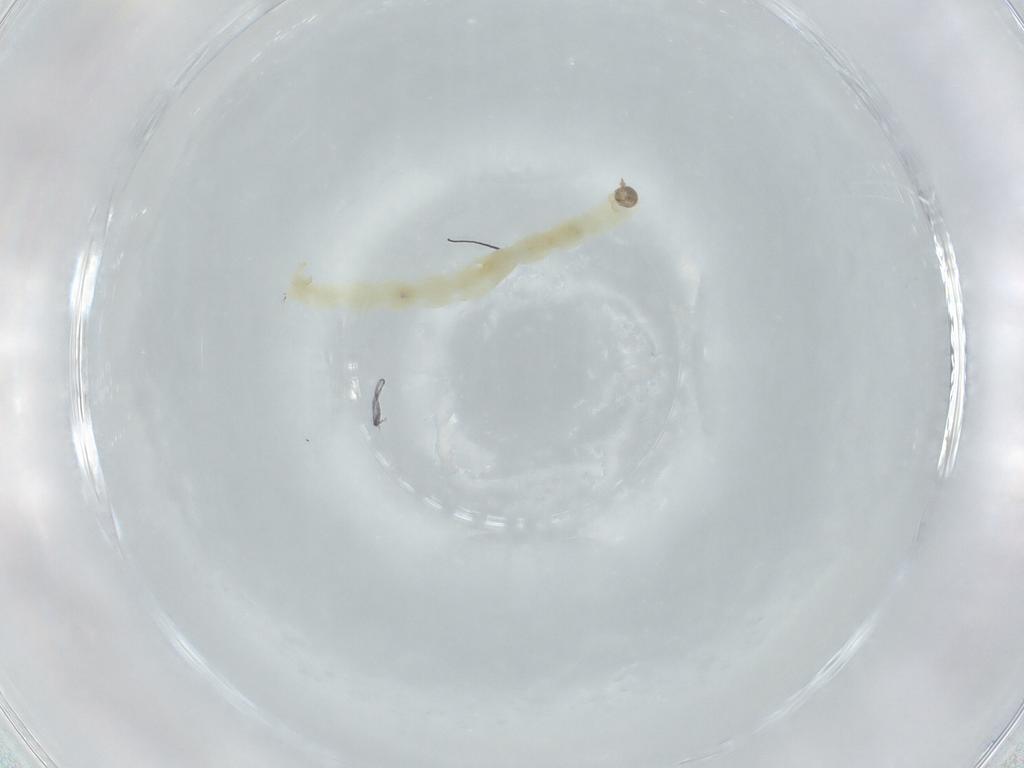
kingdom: Animalia
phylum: Arthropoda
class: Insecta
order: Diptera
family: Chironomidae
